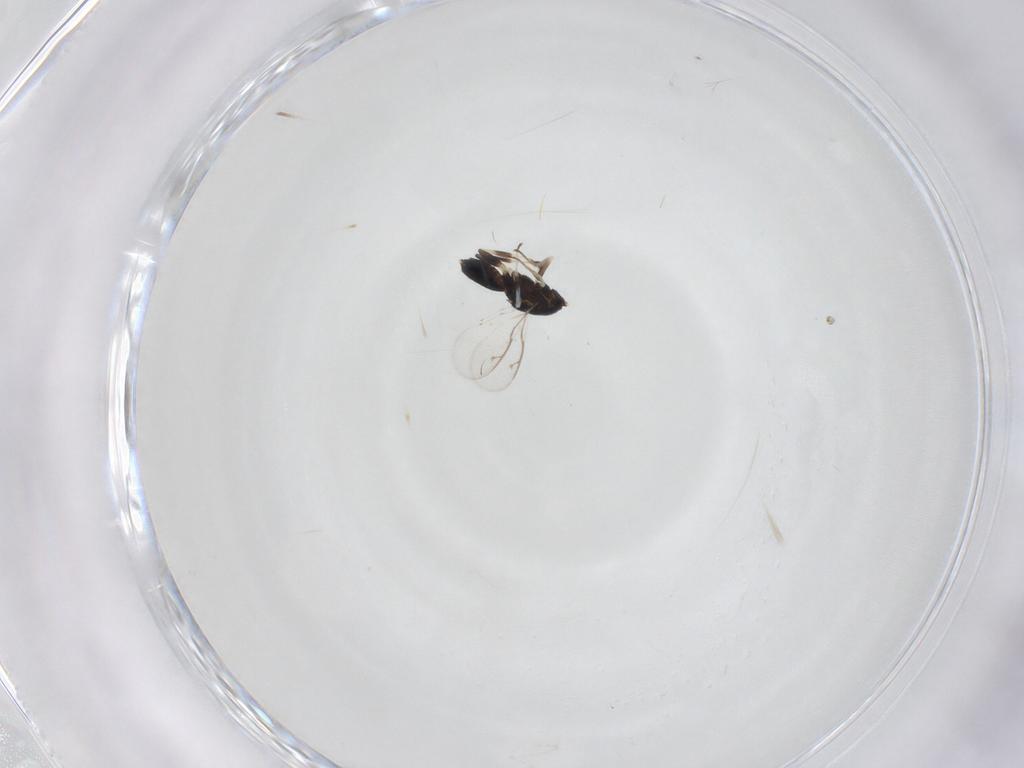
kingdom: Animalia
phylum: Arthropoda
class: Insecta
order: Hymenoptera
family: Eupelmidae
